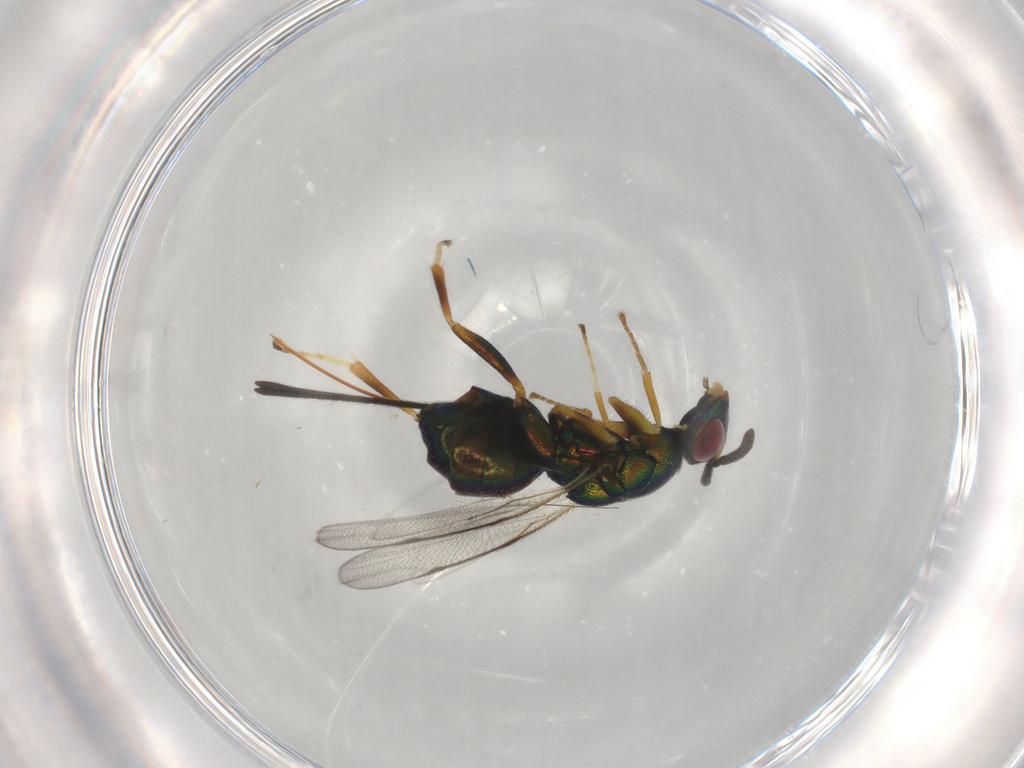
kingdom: Animalia
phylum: Arthropoda
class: Insecta
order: Hymenoptera
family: Torymidae
